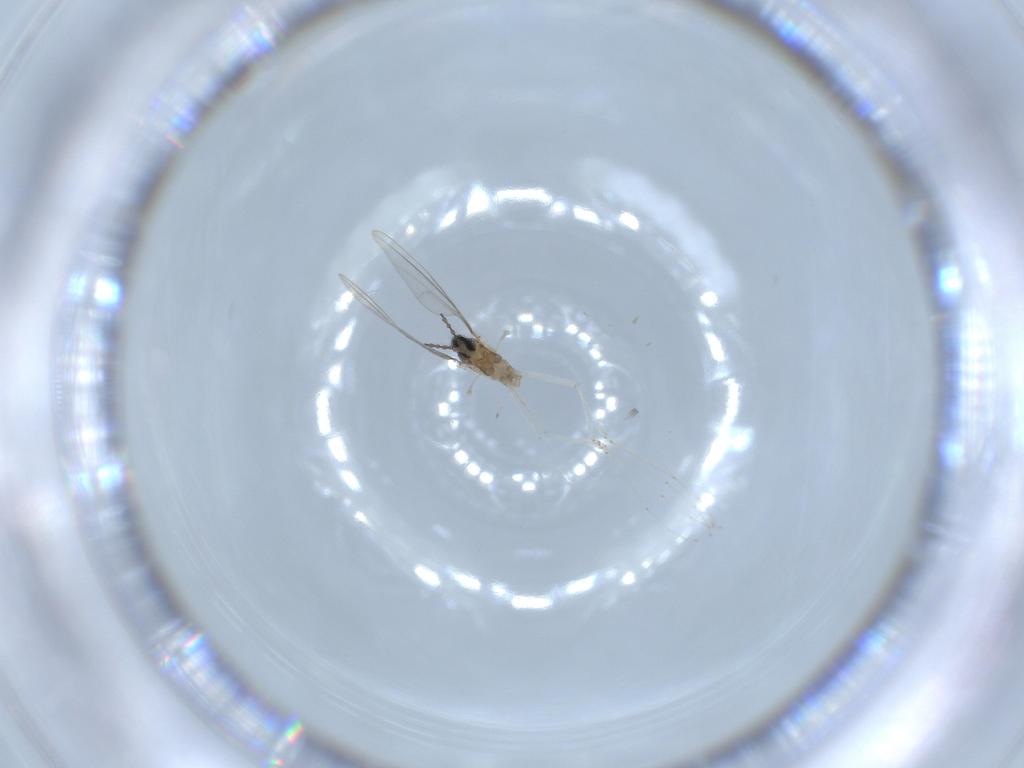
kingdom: Animalia
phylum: Arthropoda
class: Insecta
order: Diptera
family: Cecidomyiidae
